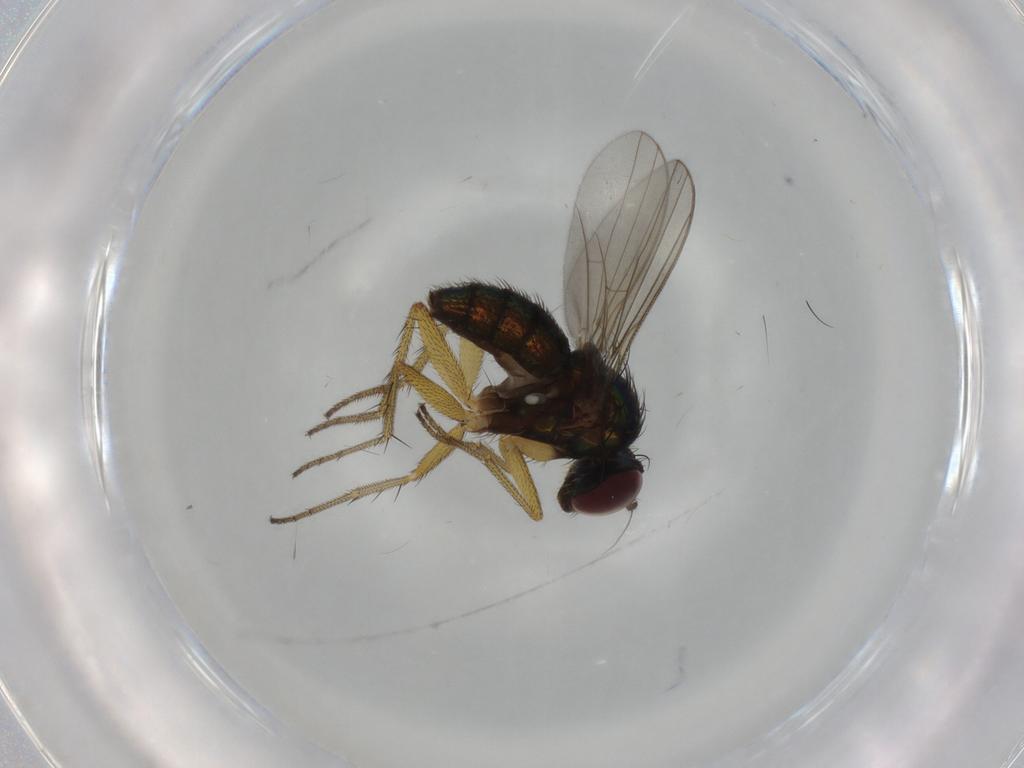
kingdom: Animalia
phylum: Arthropoda
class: Insecta
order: Diptera
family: Dolichopodidae
